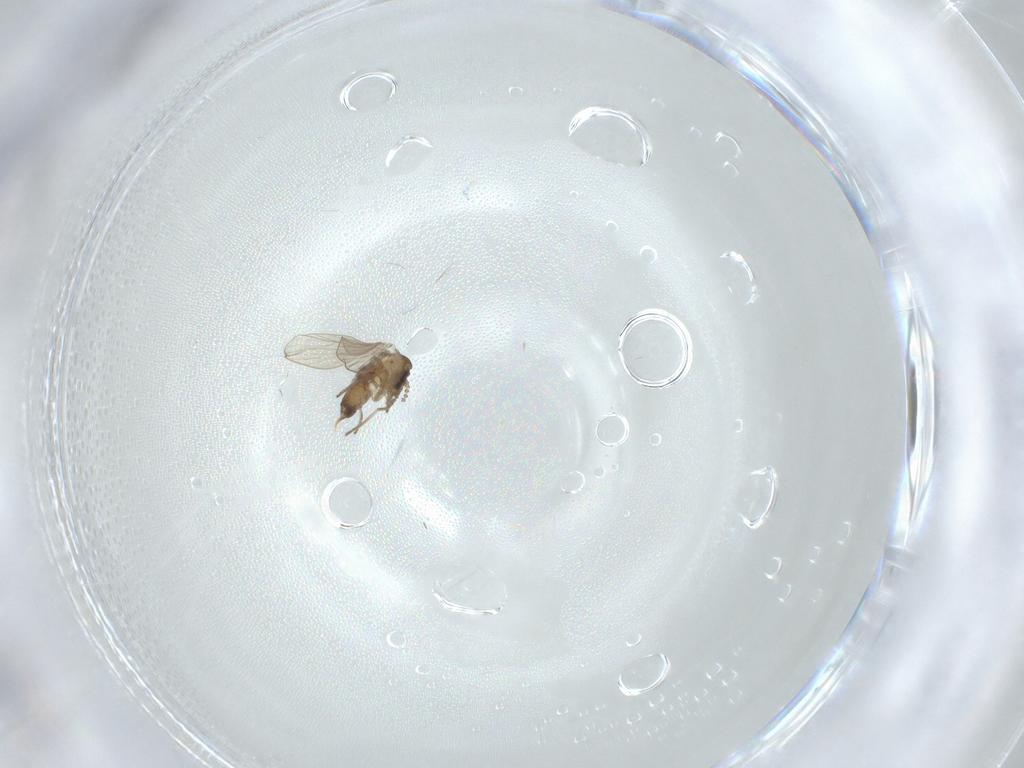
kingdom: Animalia
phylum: Arthropoda
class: Insecta
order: Diptera
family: Psychodidae
